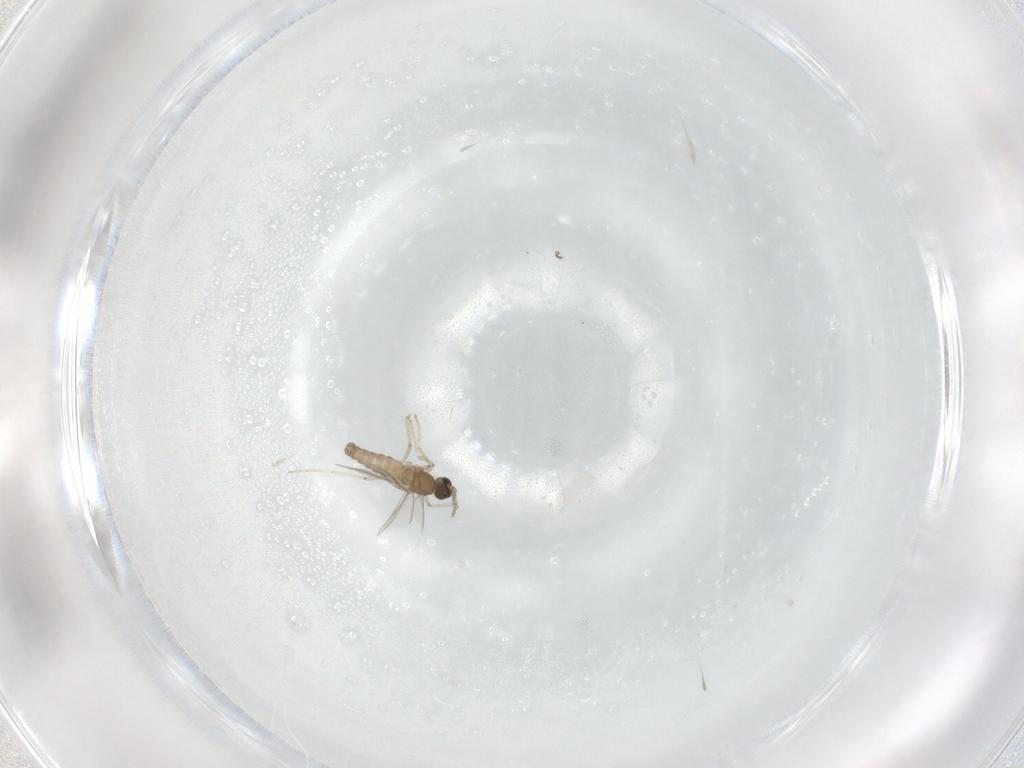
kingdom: Animalia
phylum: Arthropoda
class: Insecta
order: Diptera
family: Cecidomyiidae
